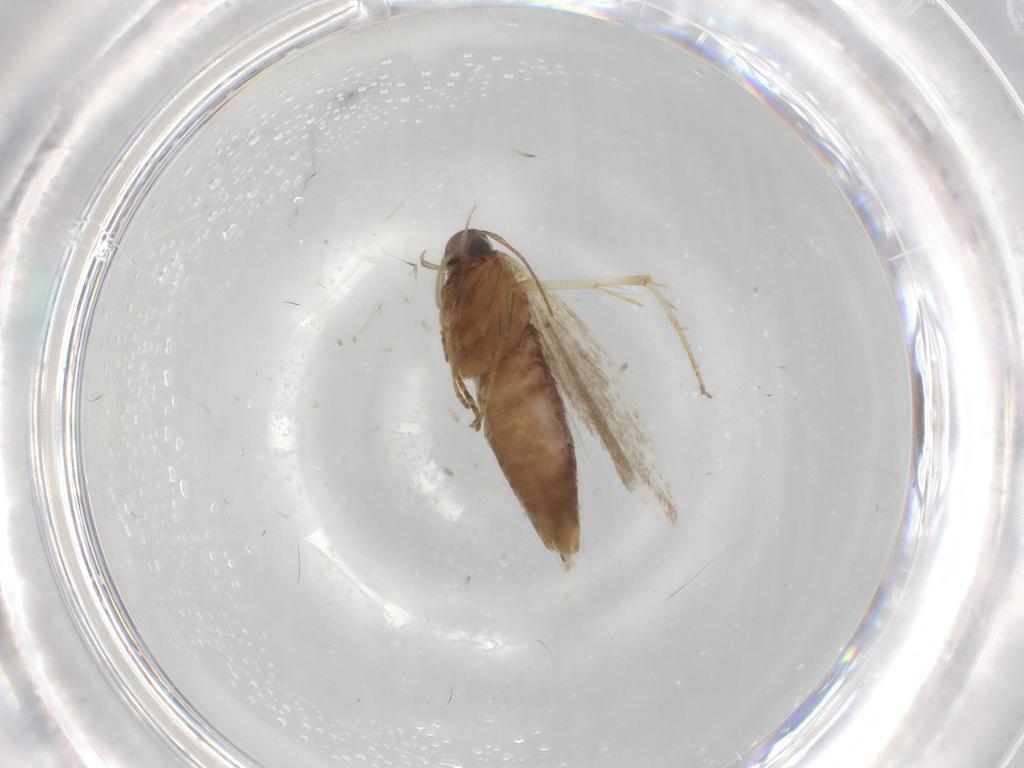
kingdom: Animalia
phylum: Arthropoda
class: Insecta
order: Lepidoptera
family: Gelechiidae
